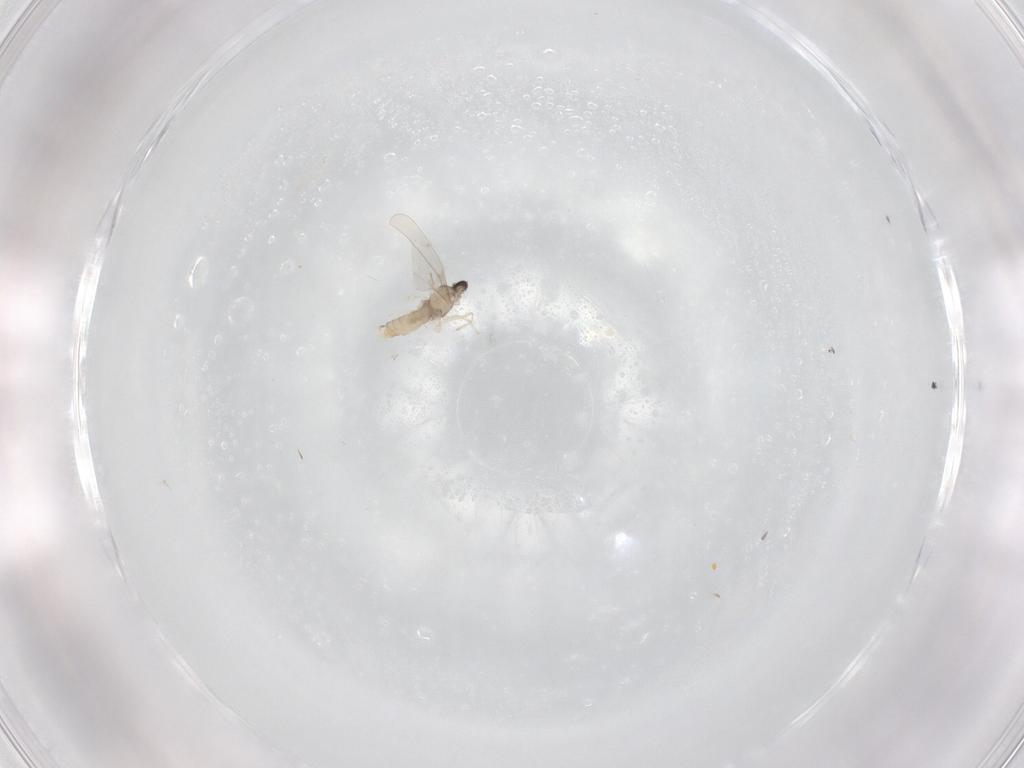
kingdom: Animalia
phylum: Arthropoda
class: Insecta
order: Diptera
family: Cecidomyiidae
